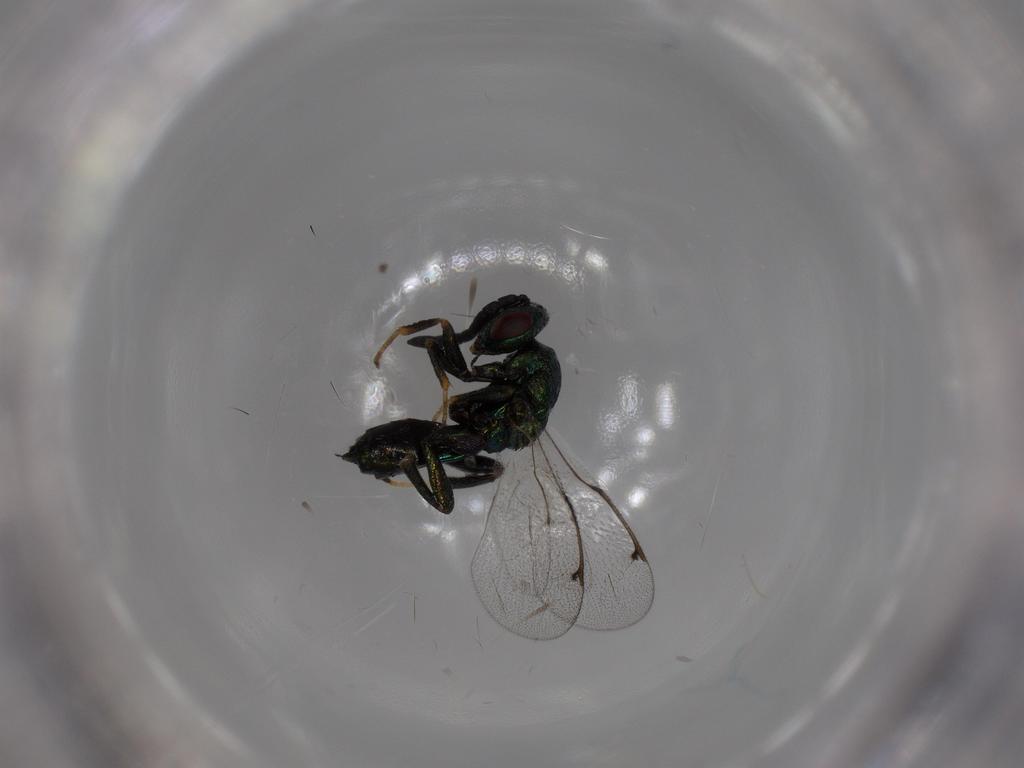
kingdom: Animalia
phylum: Arthropoda
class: Insecta
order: Hymenoptera
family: Torymidae
